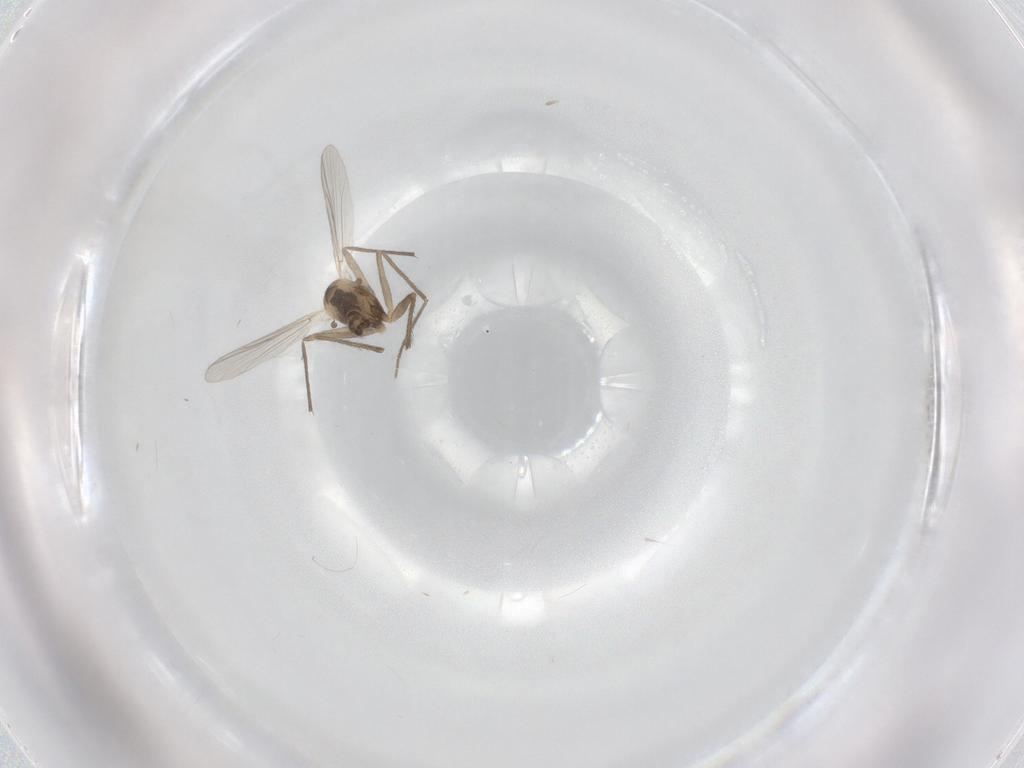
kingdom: Animalia
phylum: Arthropoda
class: Insecta
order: Diptera
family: Chironomidae
